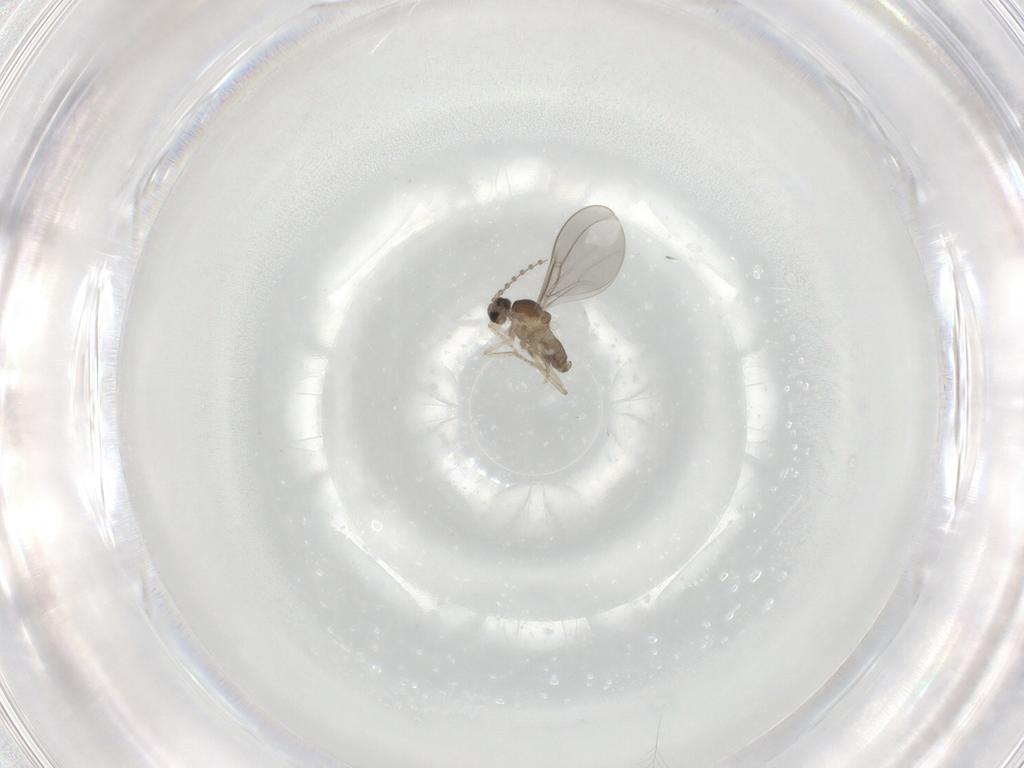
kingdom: Animalia
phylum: Arthropoda
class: Insecta
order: Diptera
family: Cecidomyiidae
